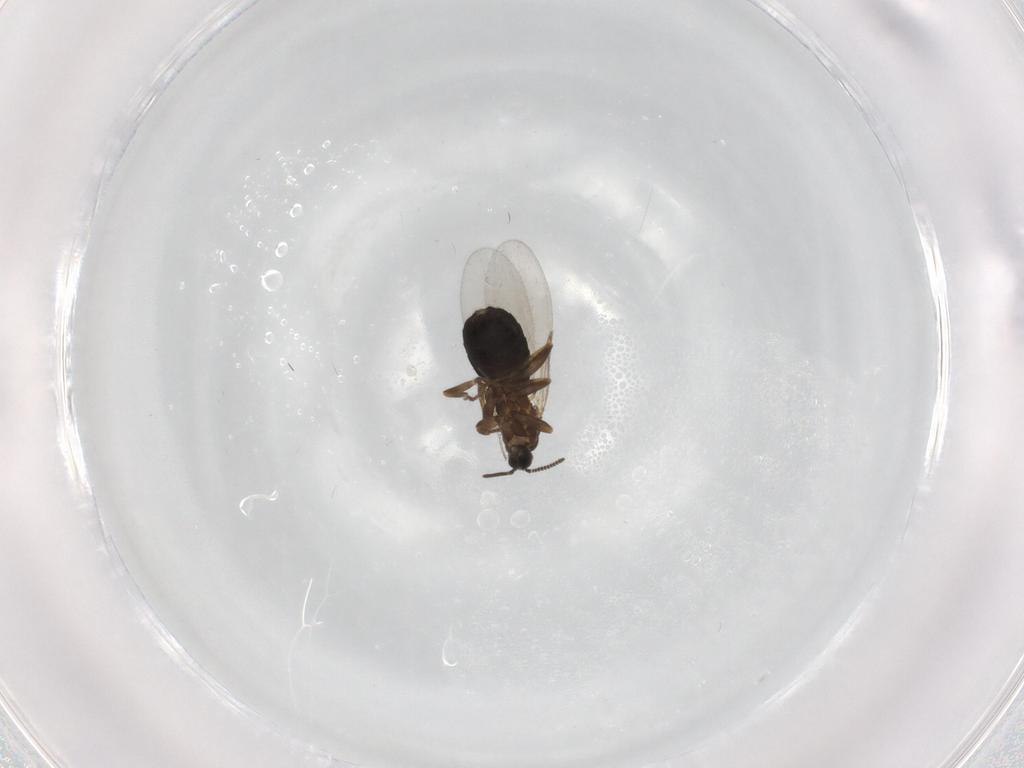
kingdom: Animalia
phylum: Arthropoda
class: Insecta
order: Diptera
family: Scatopsidae
